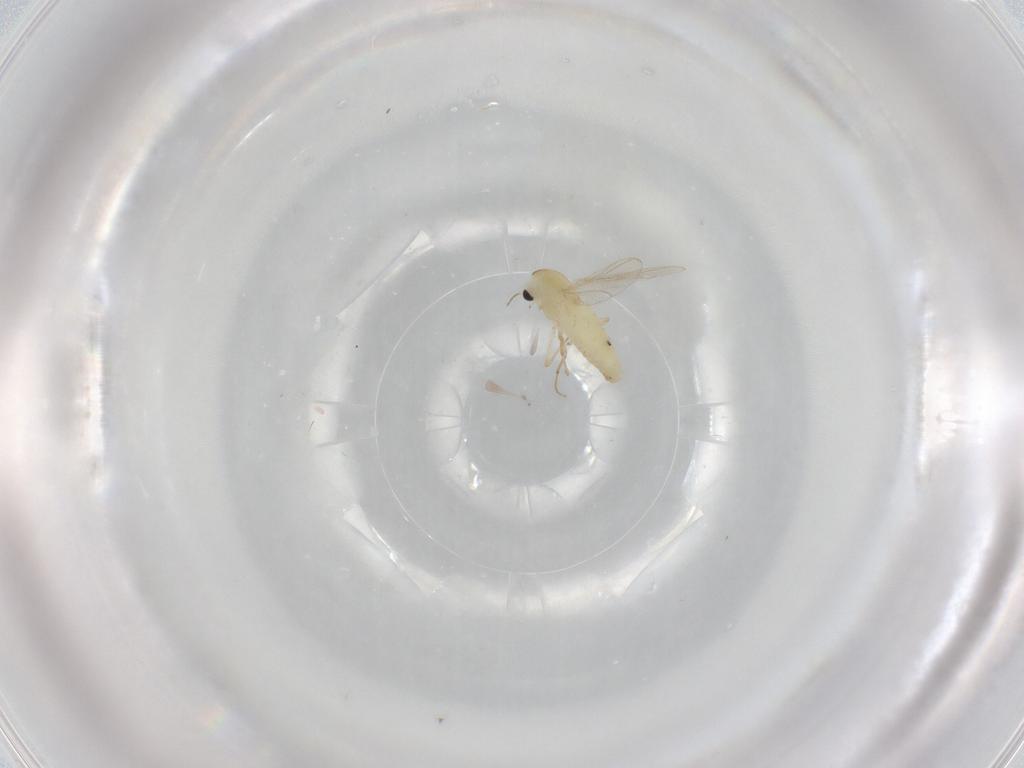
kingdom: Animalia
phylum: Arthropoda
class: Insecta
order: Diptera
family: Chironomidae
